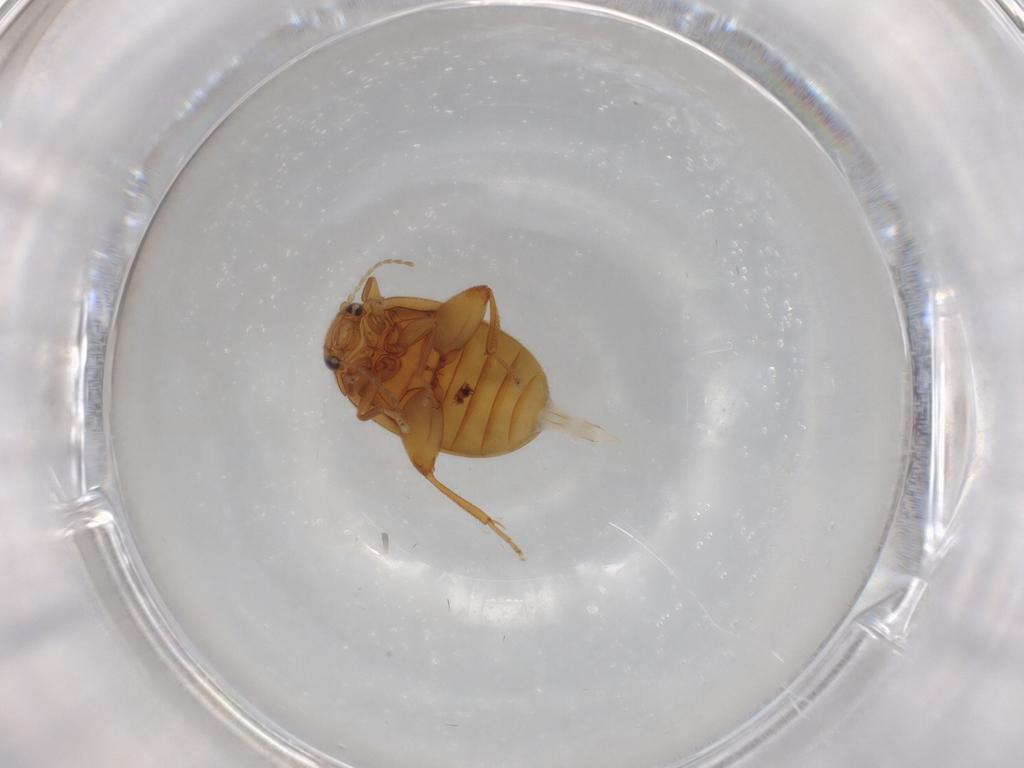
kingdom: Animalia
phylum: Arthropoda
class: Insecta
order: Coleoptera
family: Scirtidae
